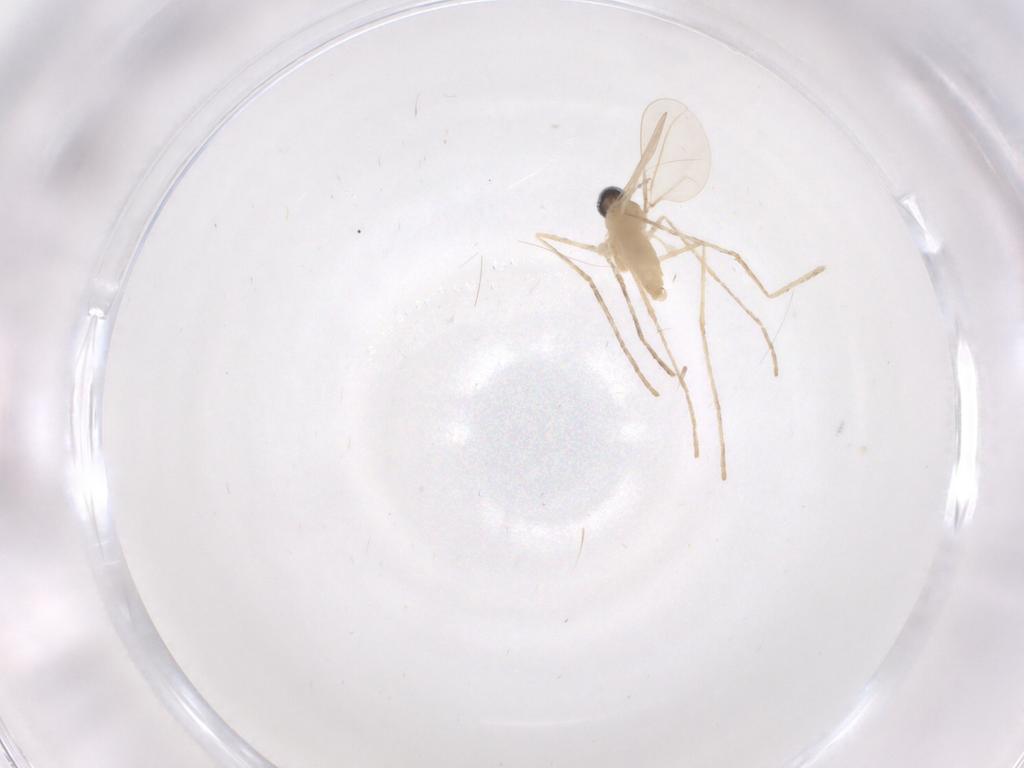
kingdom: Animalia
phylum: Arthropoda
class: Insecta
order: Diptera
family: Cecidomyiidae
